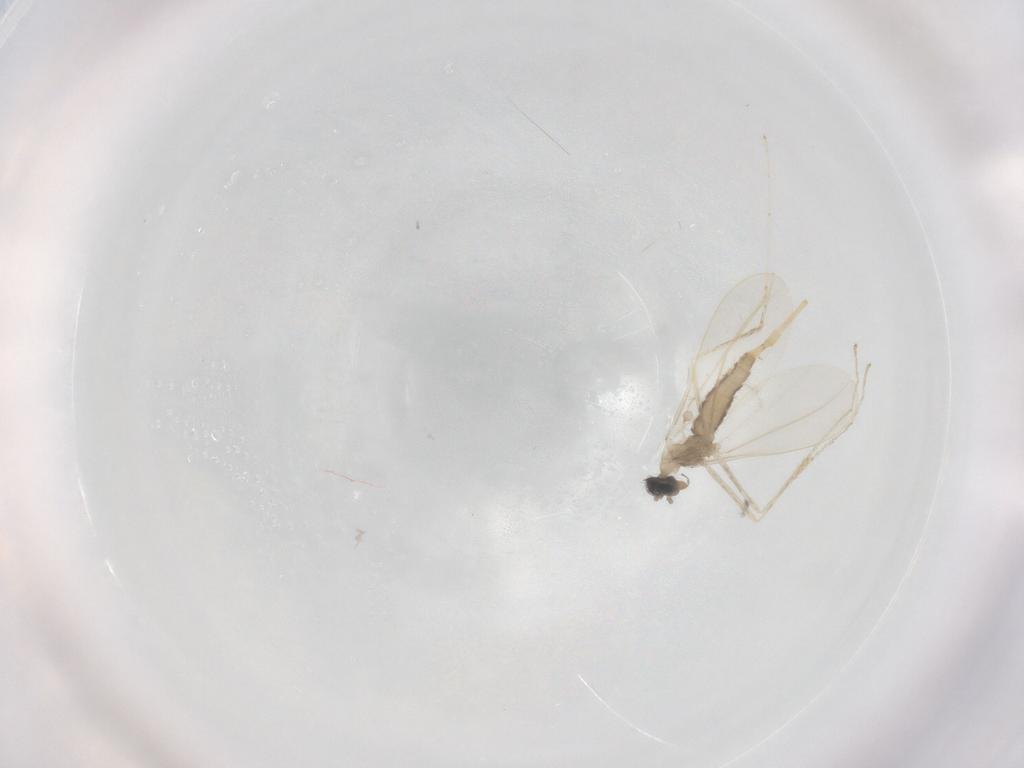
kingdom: Animalia
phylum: Arthropoda
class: Insecta
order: Diptera
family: Cecidomyiidae
